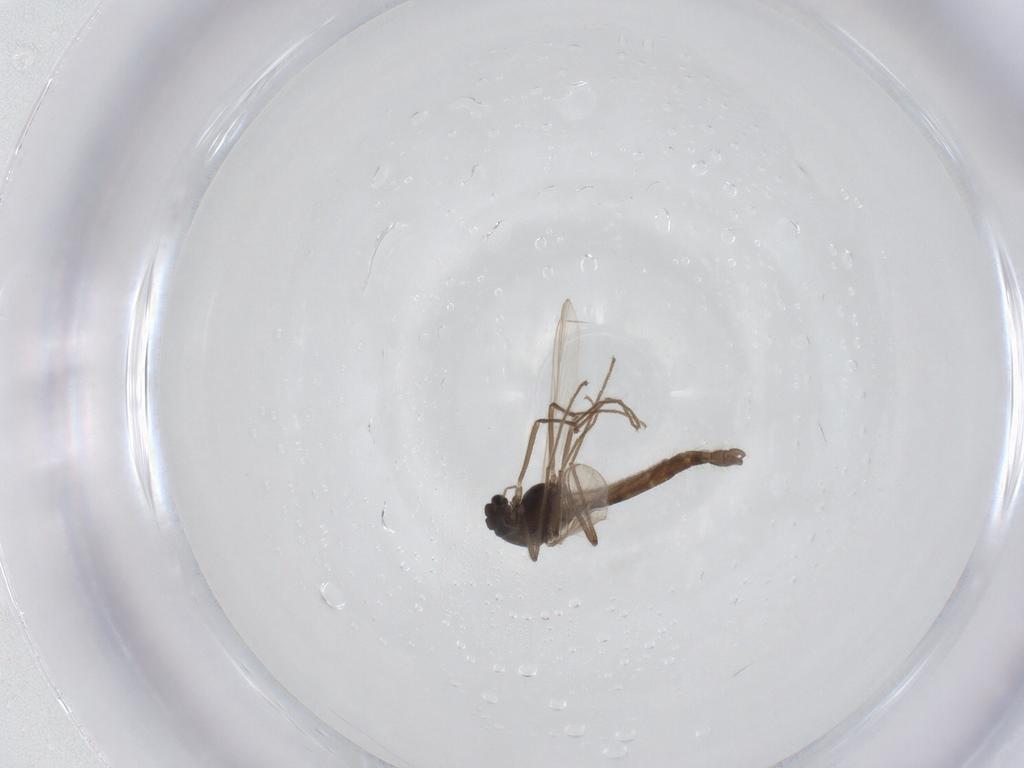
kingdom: Animalia
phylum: Arthropoda
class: Insecta
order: Diptera
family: Chironomidae
